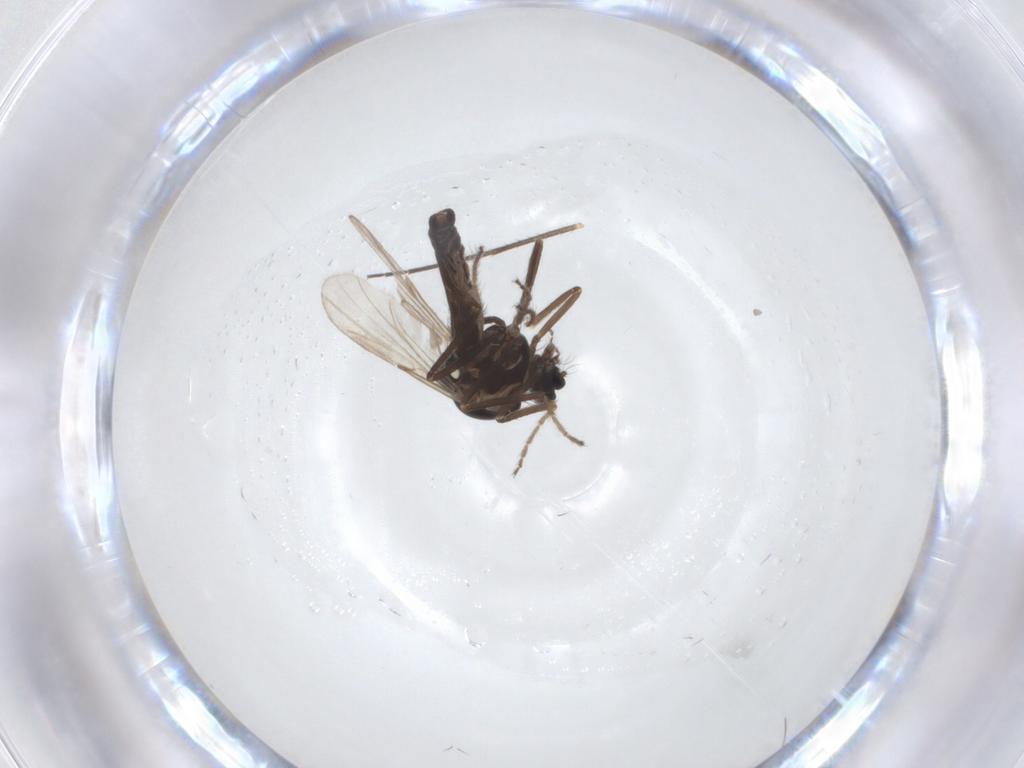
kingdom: Animalia
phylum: Arthropoda
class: Insecta
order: Diptera
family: Ceratopogonidae
